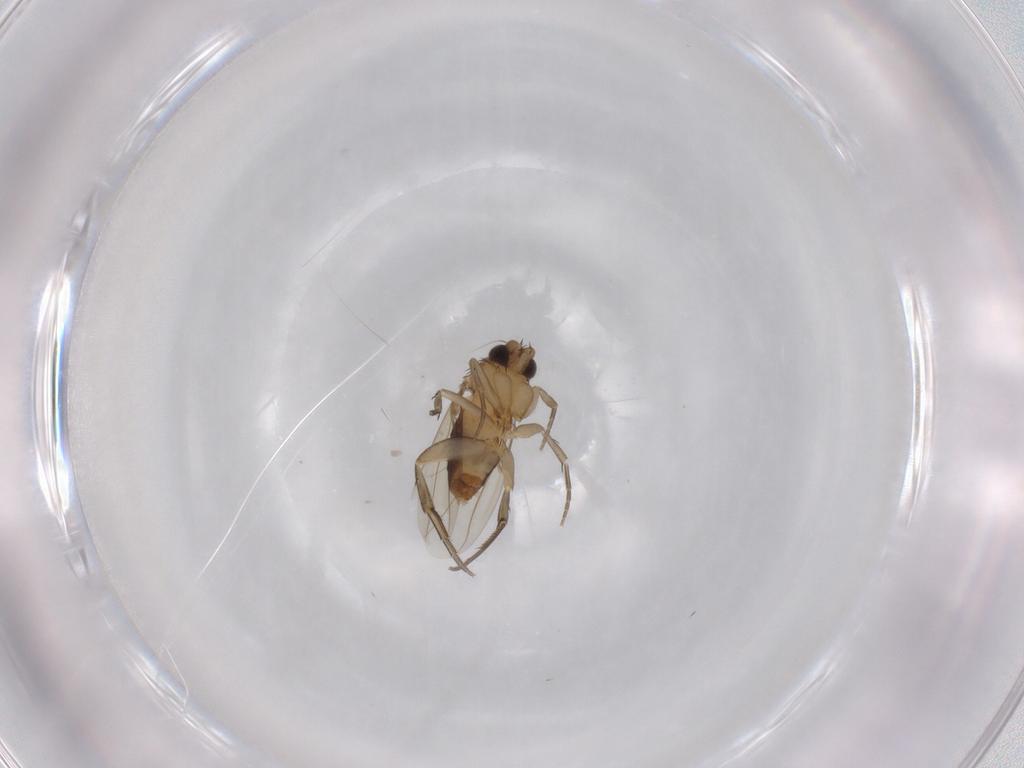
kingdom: Animalia
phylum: Arthropoda
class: Insecta
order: Diptera
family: Phoridae
